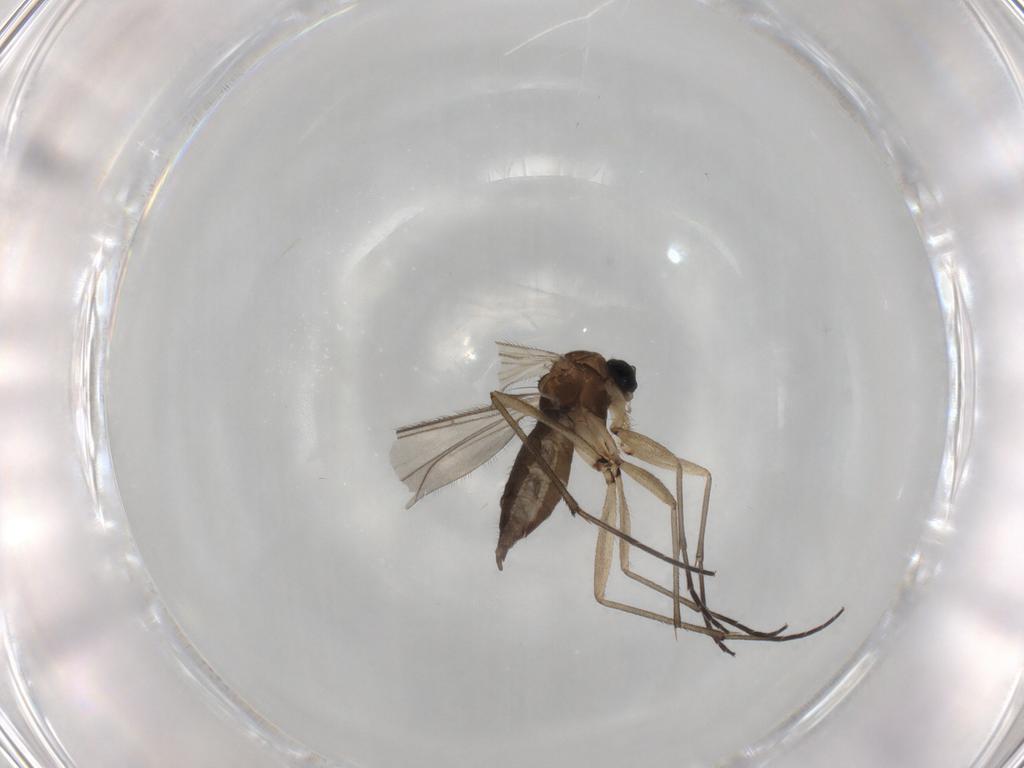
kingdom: Animalia
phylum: Arthropoda
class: Insecta
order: Diptera
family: Sciaridae
